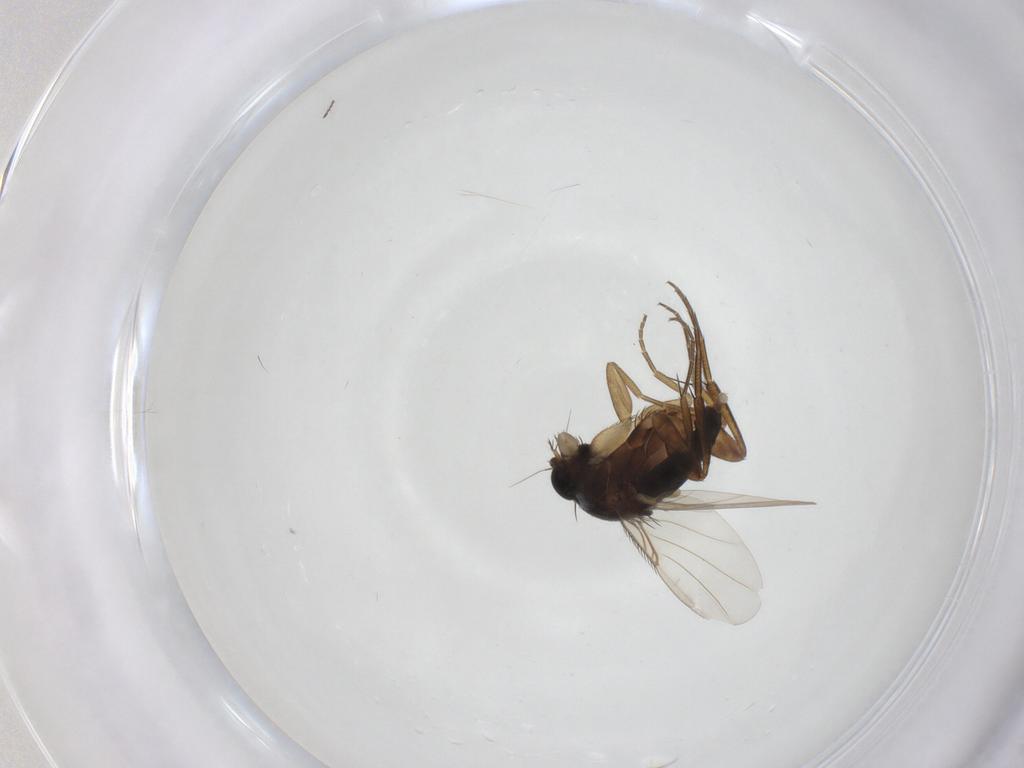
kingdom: Animalia
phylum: Arthropoda
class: Insecta
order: Diptera
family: Phoridae
